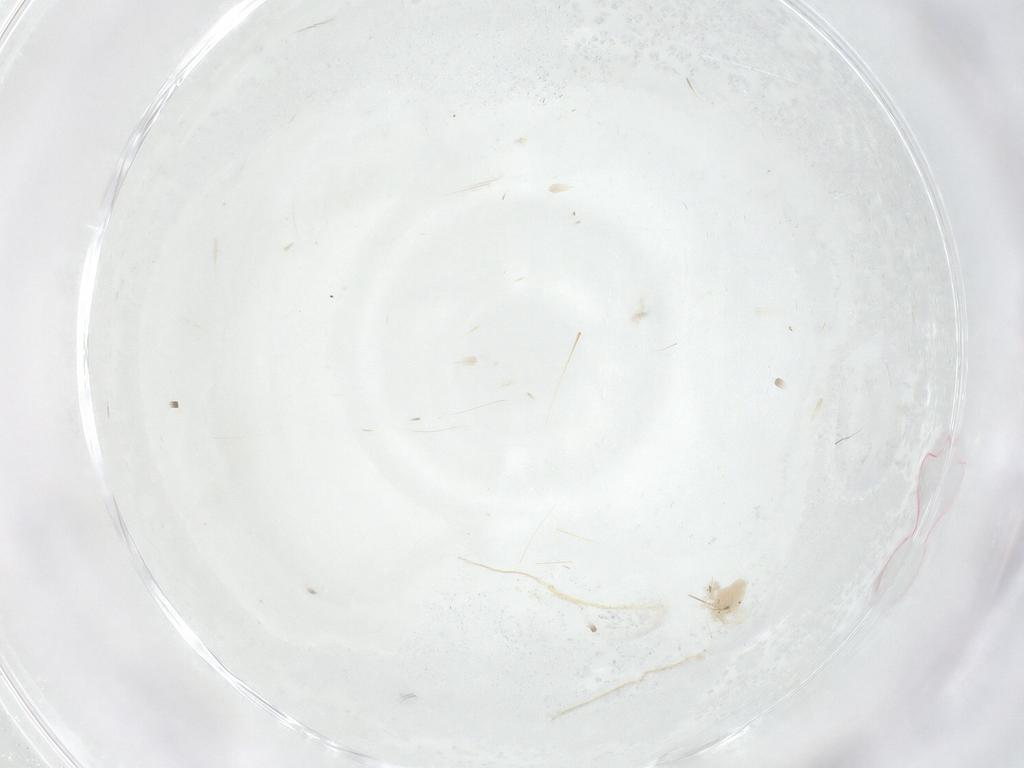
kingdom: Animalia
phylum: Arthropoda
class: Arachnida
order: Trombidiformes
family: Anystidae
